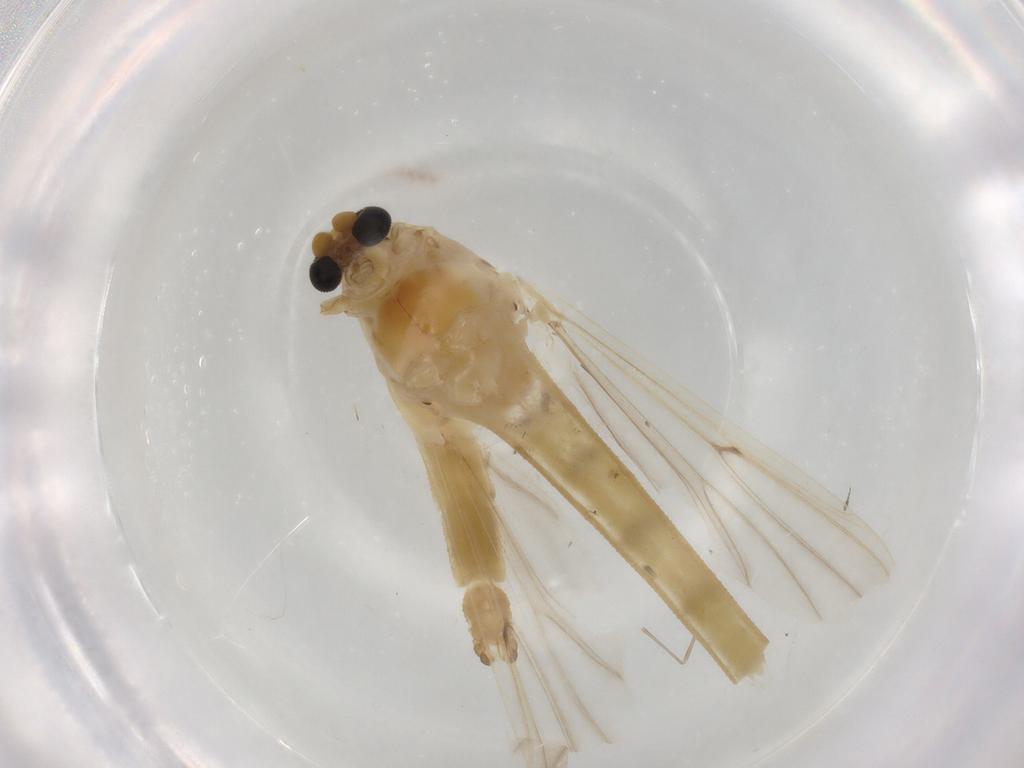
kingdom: Animalia
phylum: Arthropoda
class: Insecta
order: Diptera
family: Chironomidae
